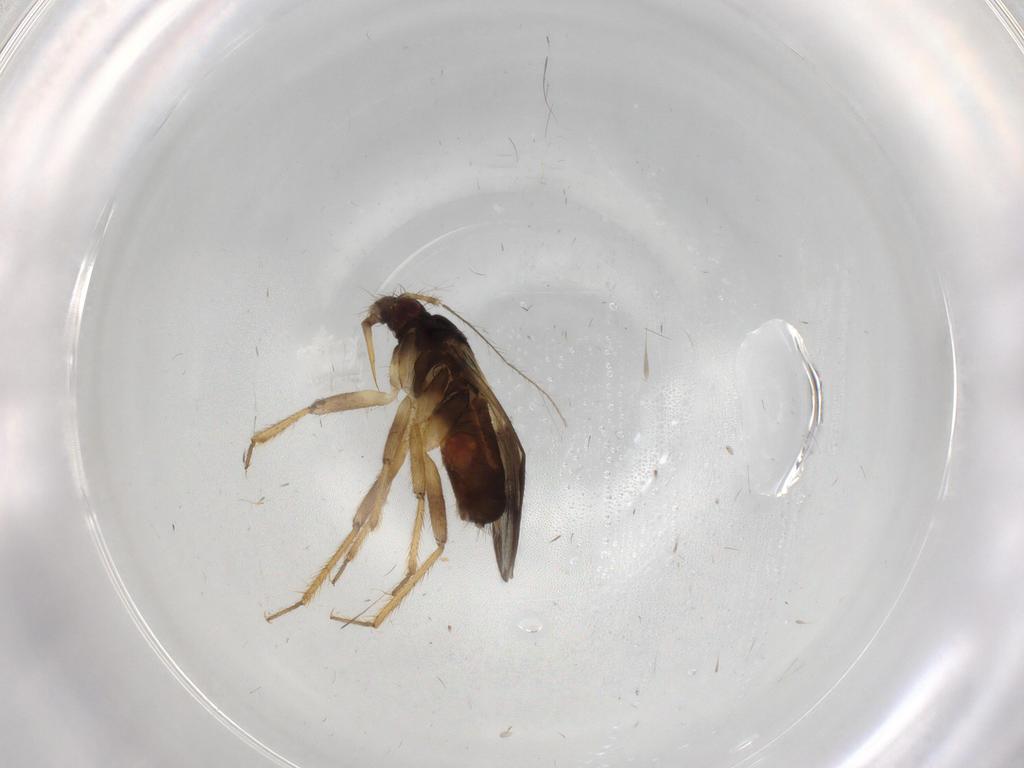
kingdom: Animalia
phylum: Arthropoda
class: Insecta
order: Hemiptera
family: Ceratocombidae
